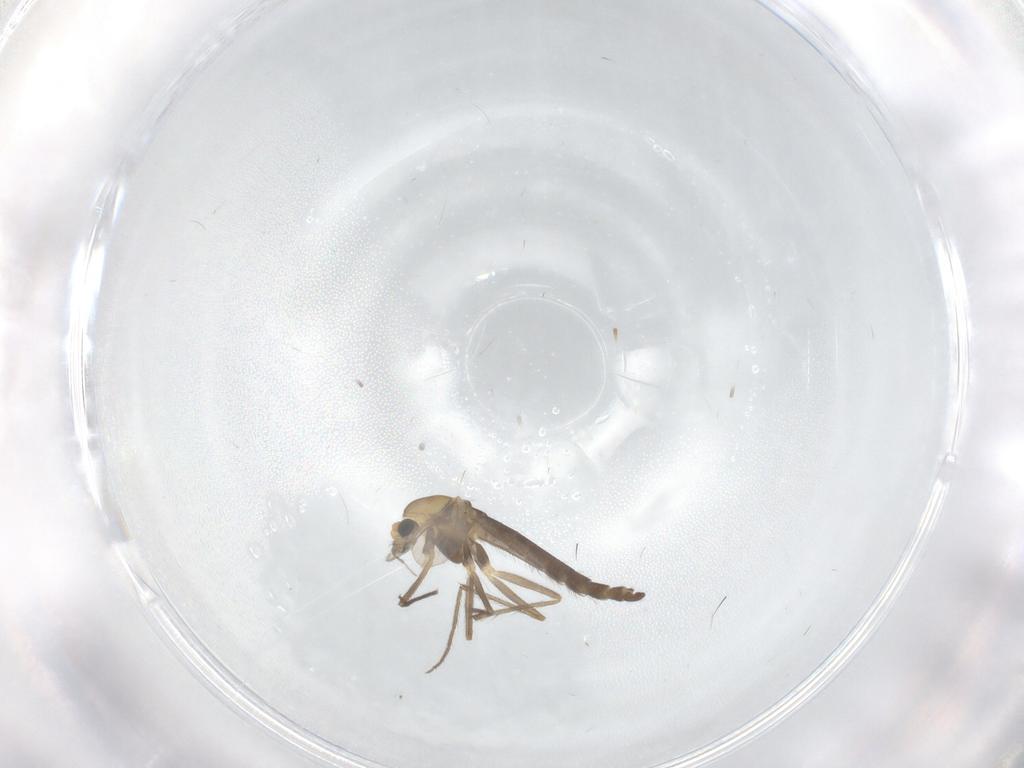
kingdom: Animalia
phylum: Arthropoda
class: Insecta
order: Diptera
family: Chironomidae
